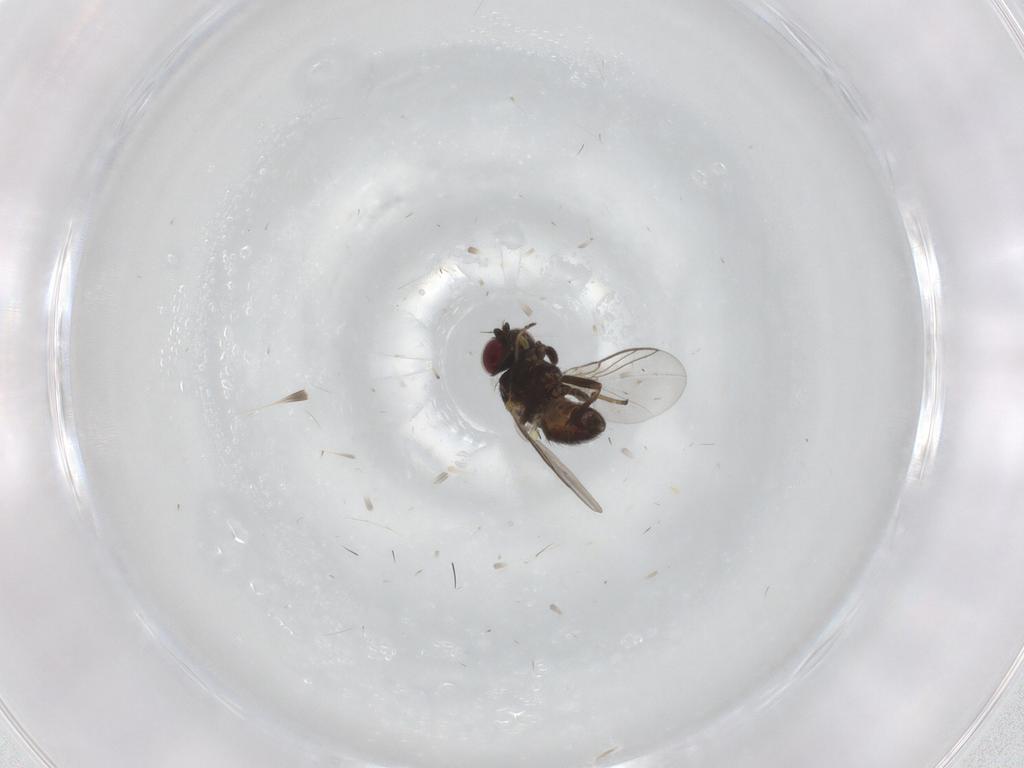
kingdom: Animalia
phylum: Arthropoda
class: Insecta
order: Diptera
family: Agromyzidae
